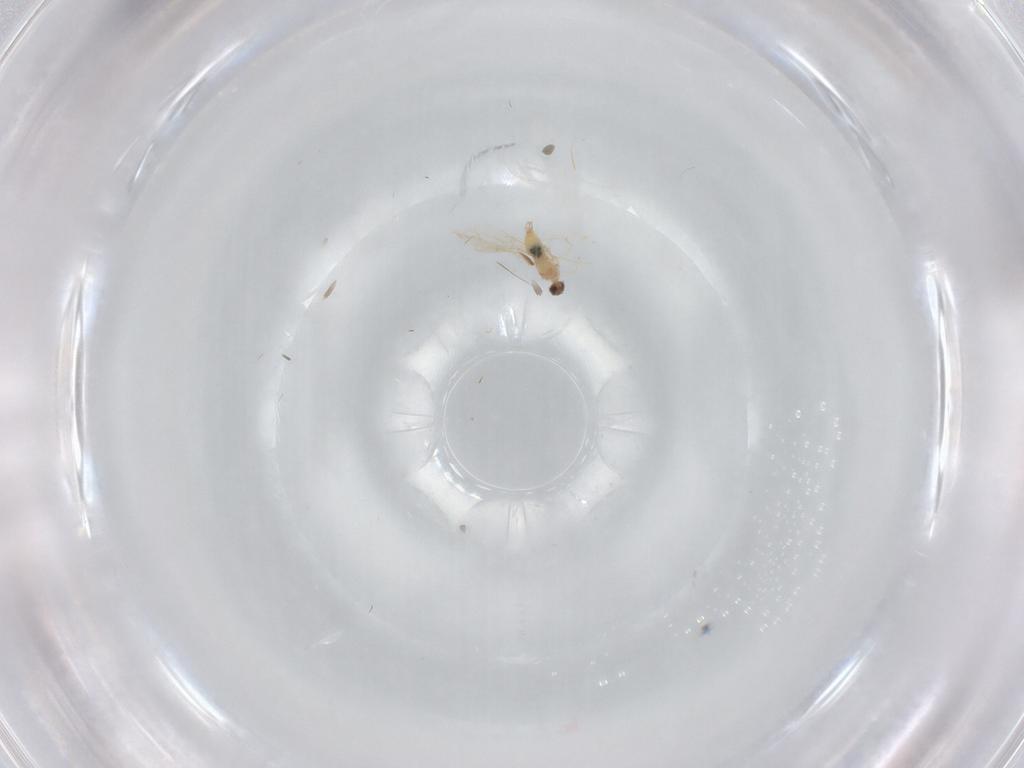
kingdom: Animalia
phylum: Arthropoda
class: Insecta
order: Diptera
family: Cecidomyiidae
